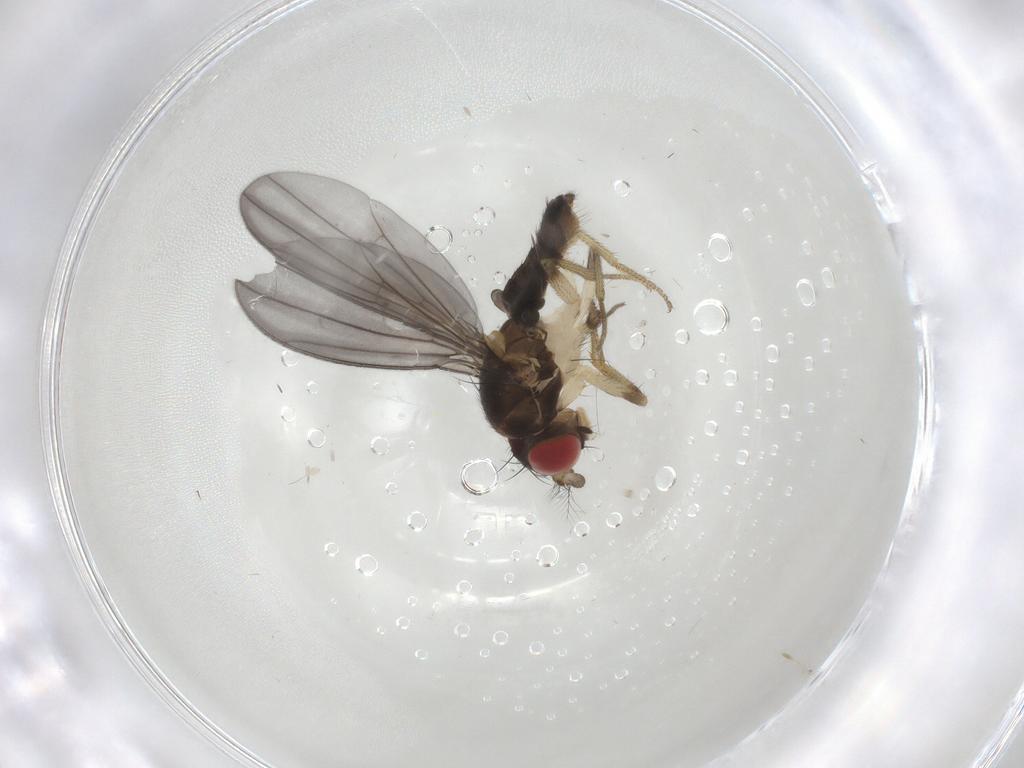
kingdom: Animalia
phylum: Arthropoda
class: Insecta
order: Diptera
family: Drosophilidae
